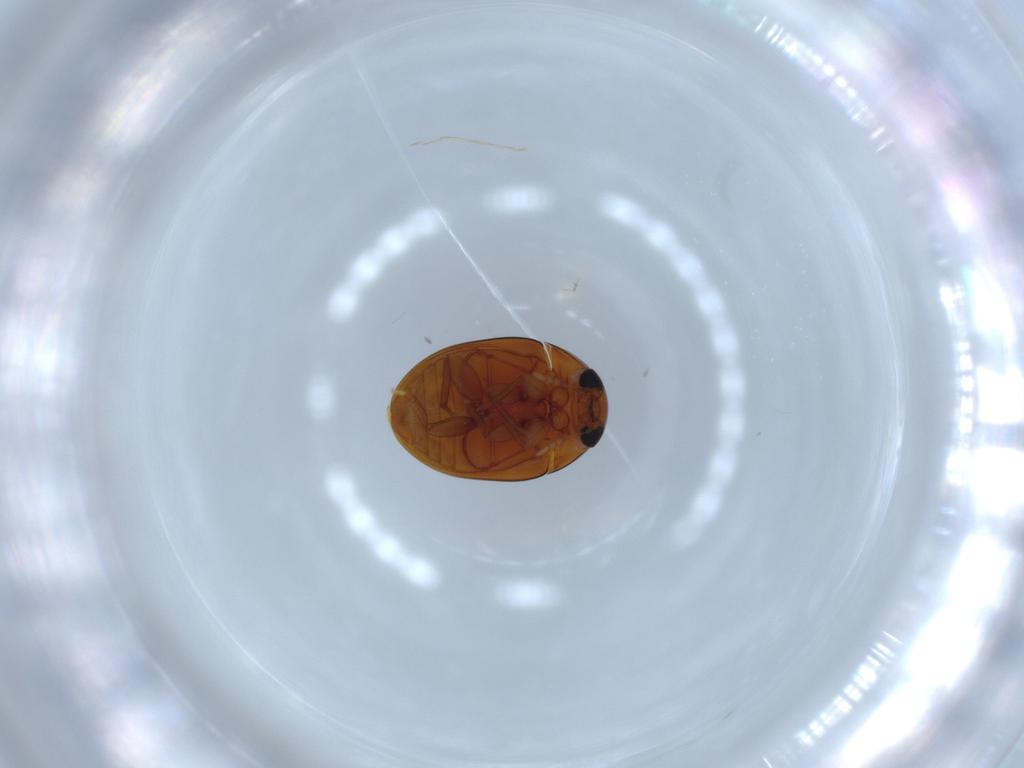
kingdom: Animalia
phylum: Arthropoda
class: Insecta
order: Coleoptera
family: Phalacridae
